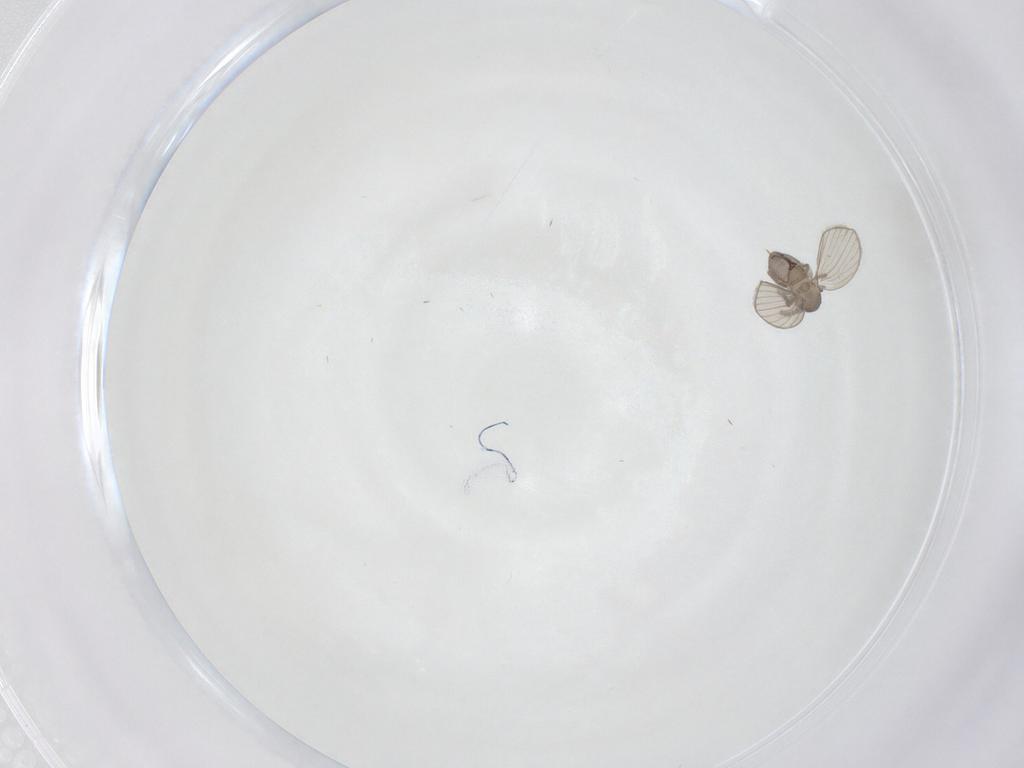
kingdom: Animalia
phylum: Arthropoda
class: Insecta
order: Diptera
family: Psychodidae
